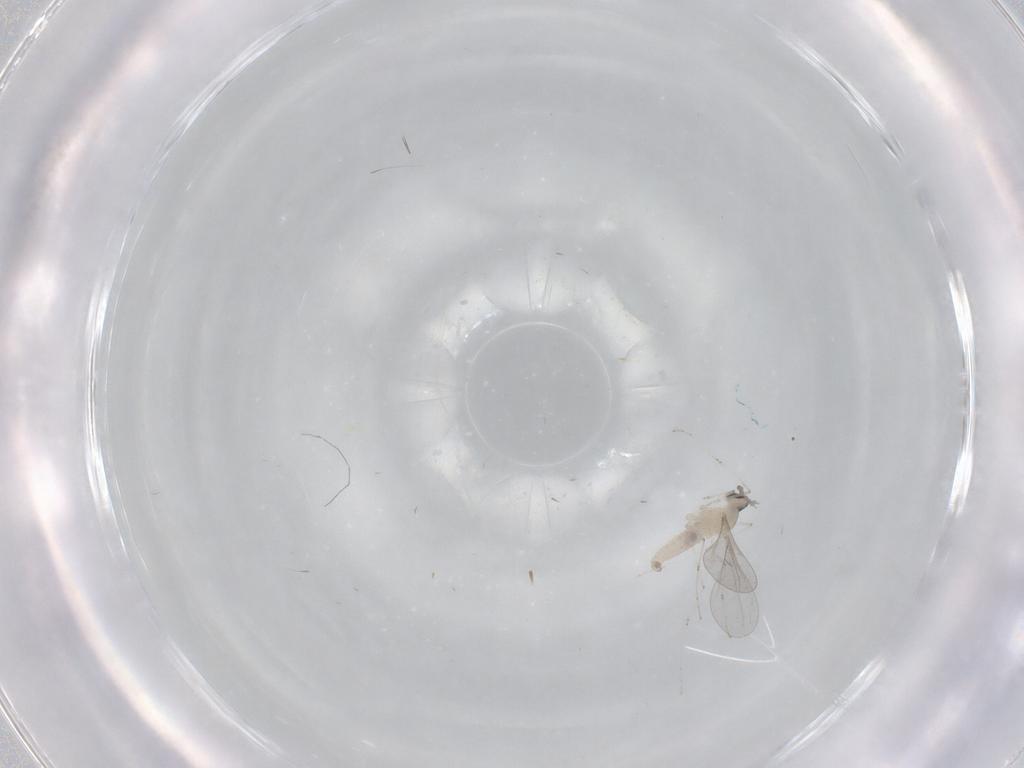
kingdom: Animalia
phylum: Arthropoda
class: Insecta
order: Diptera
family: Cecidomyiidae
